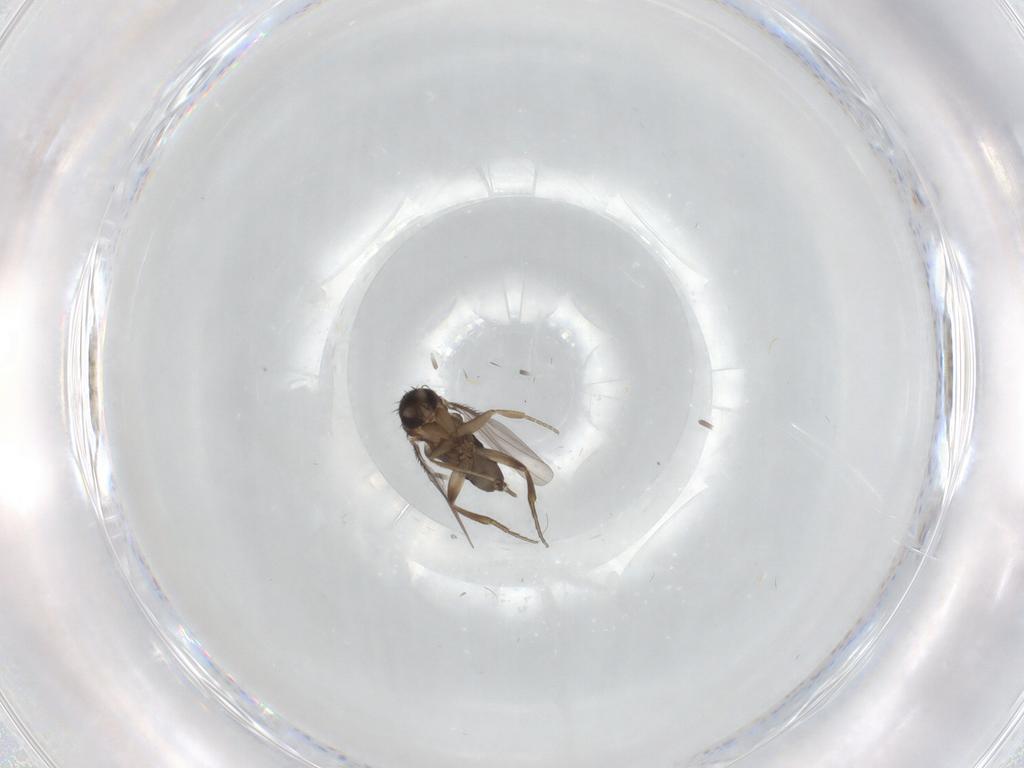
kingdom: Animalia
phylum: Arthropoda
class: Insecta
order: Diptera
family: Phoridae
